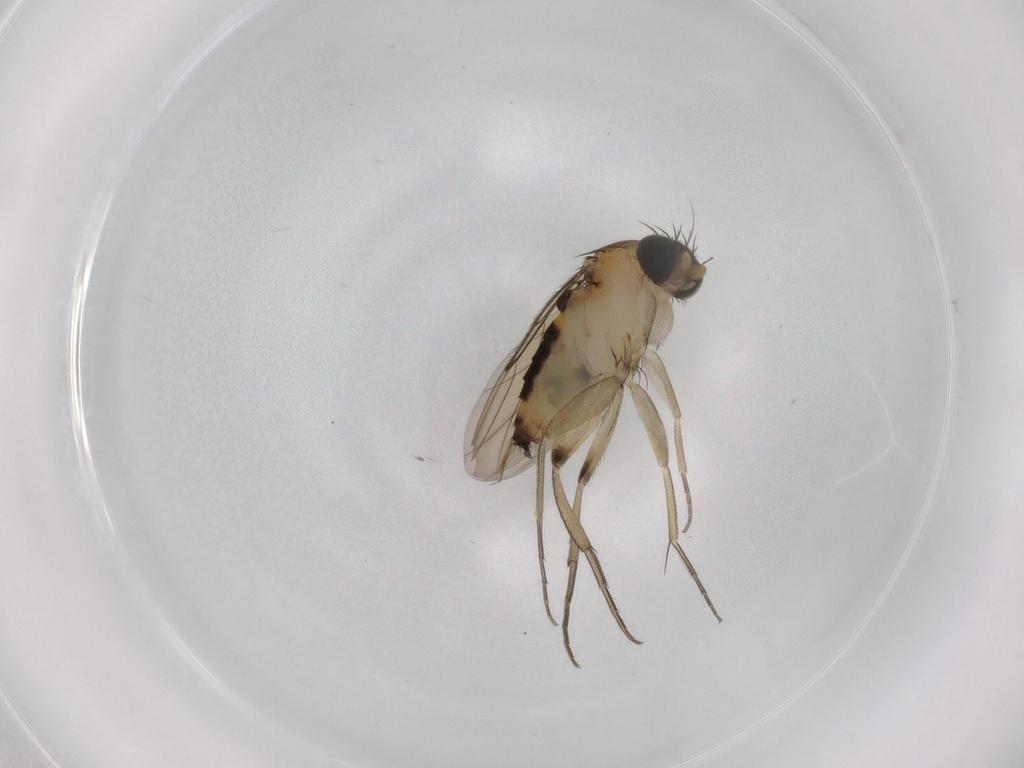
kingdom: Animalia
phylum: Arthropoda
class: Insecta
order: Diptera
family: Phoridae
